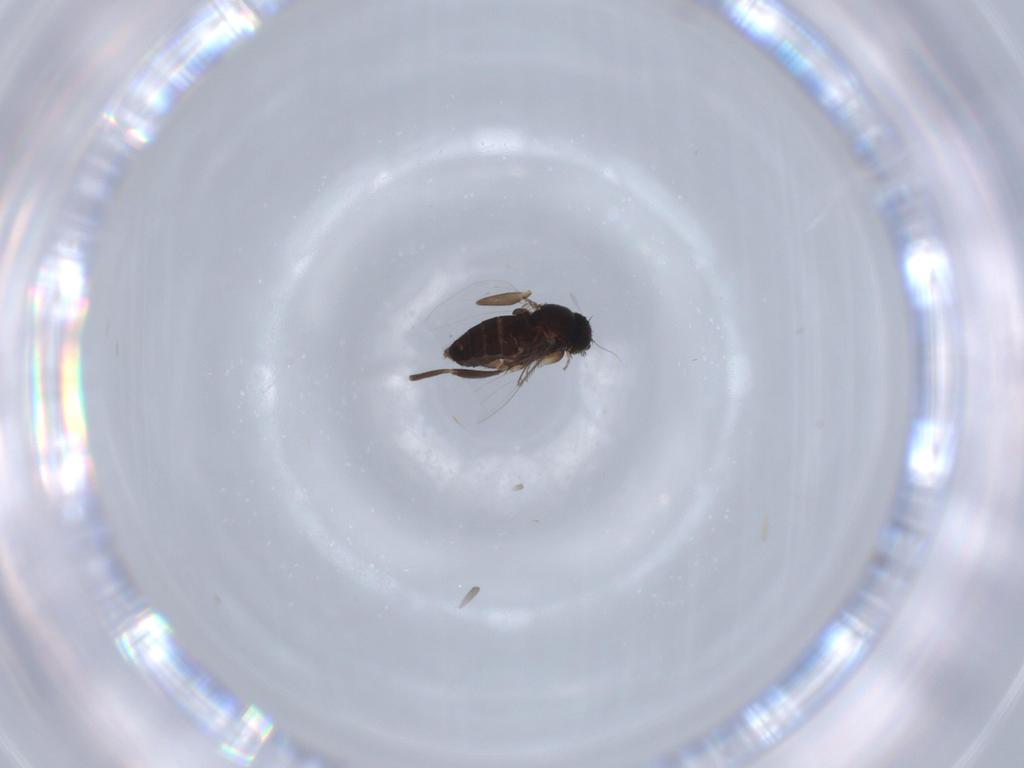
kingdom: Animalia
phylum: Arthropoda
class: Insecta
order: Diptera
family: Phoridae
